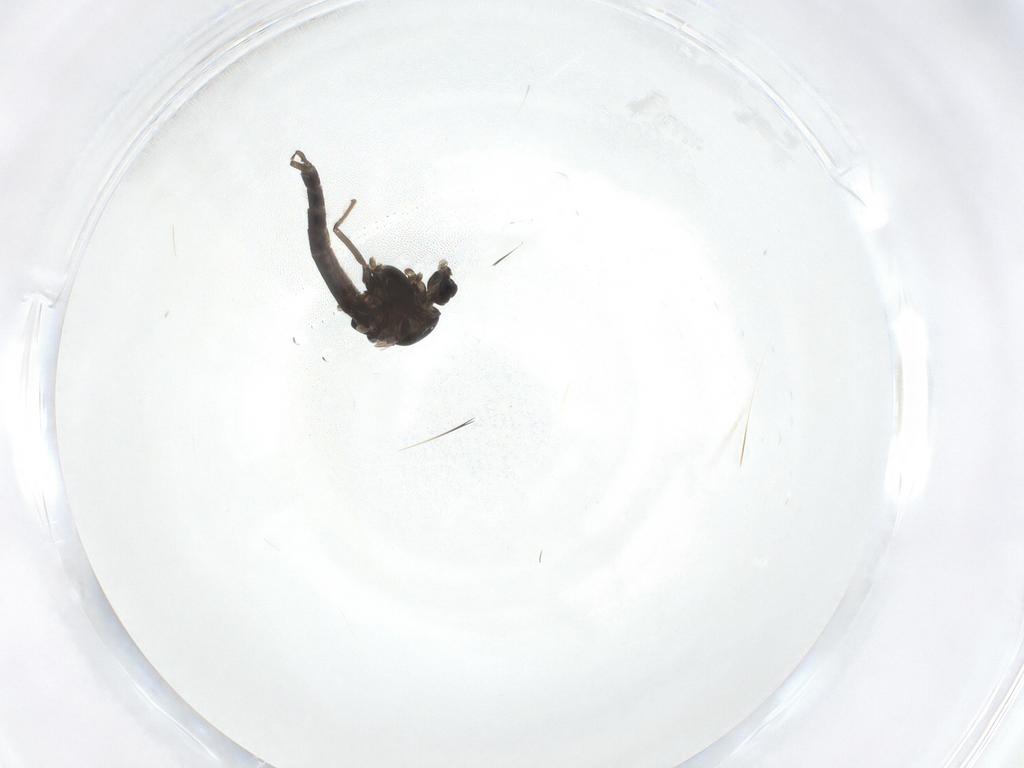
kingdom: Animalia
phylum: Arthropoda
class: Insecta
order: Diptera
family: Chironomidae
